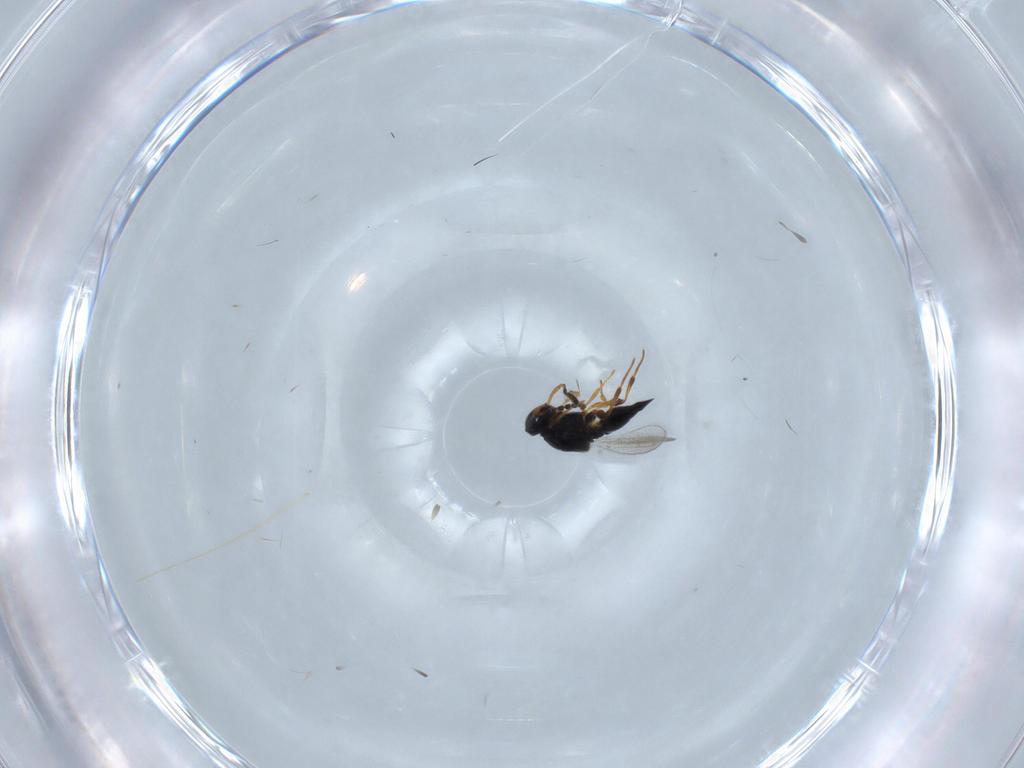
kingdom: Animalia
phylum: Arthropoda
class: Insecta
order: Hymenoptera
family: Platygastridae
